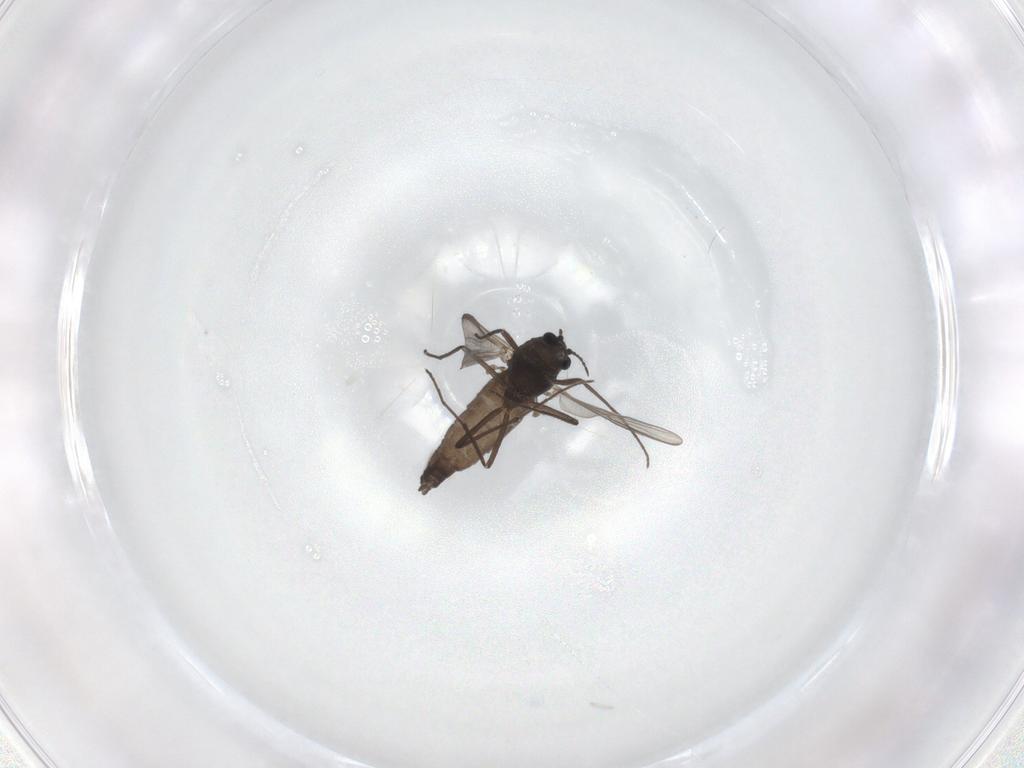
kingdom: Animalia
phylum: Arthropoda
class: Insecta
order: Diptera
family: Chironomidae
